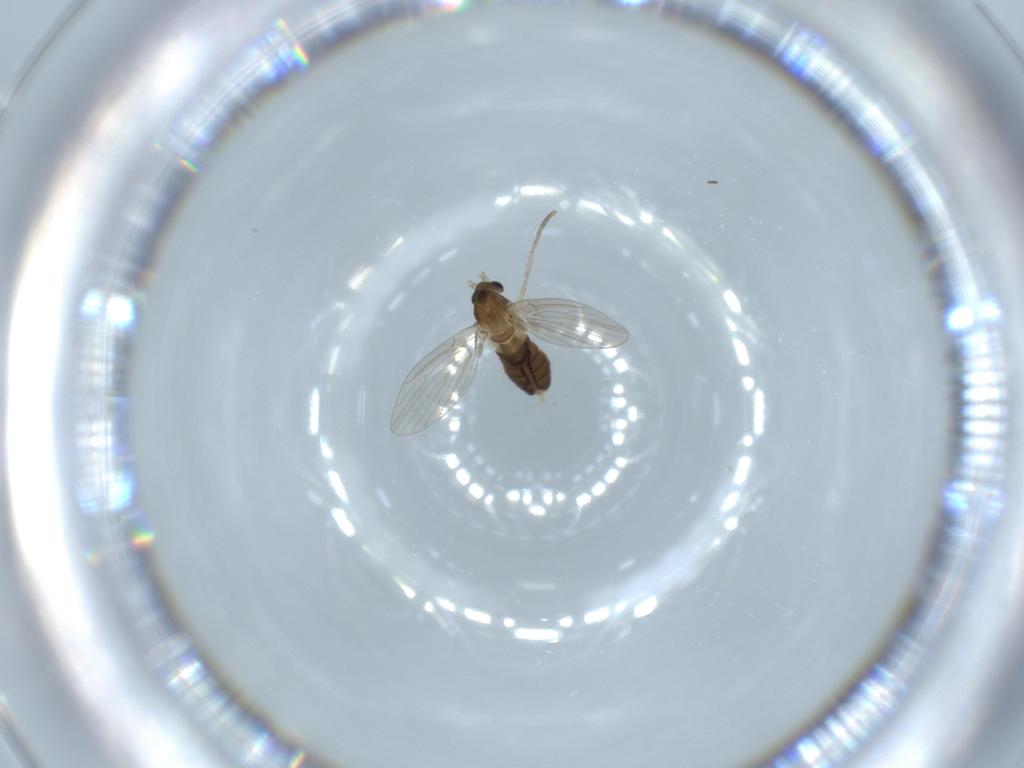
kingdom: Animalia
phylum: Arthropoda
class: Insecta
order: Diptera
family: Psychodidae
